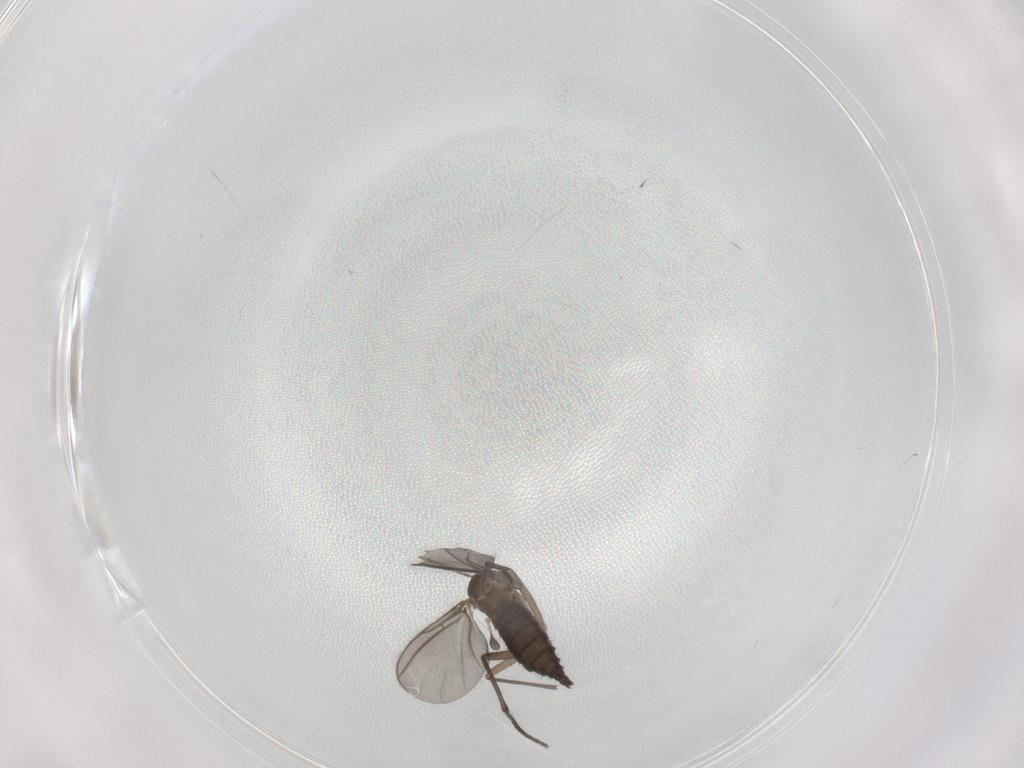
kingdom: Animalia
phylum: Arthropoda
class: Insecta
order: Diptera
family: Sciaridae
